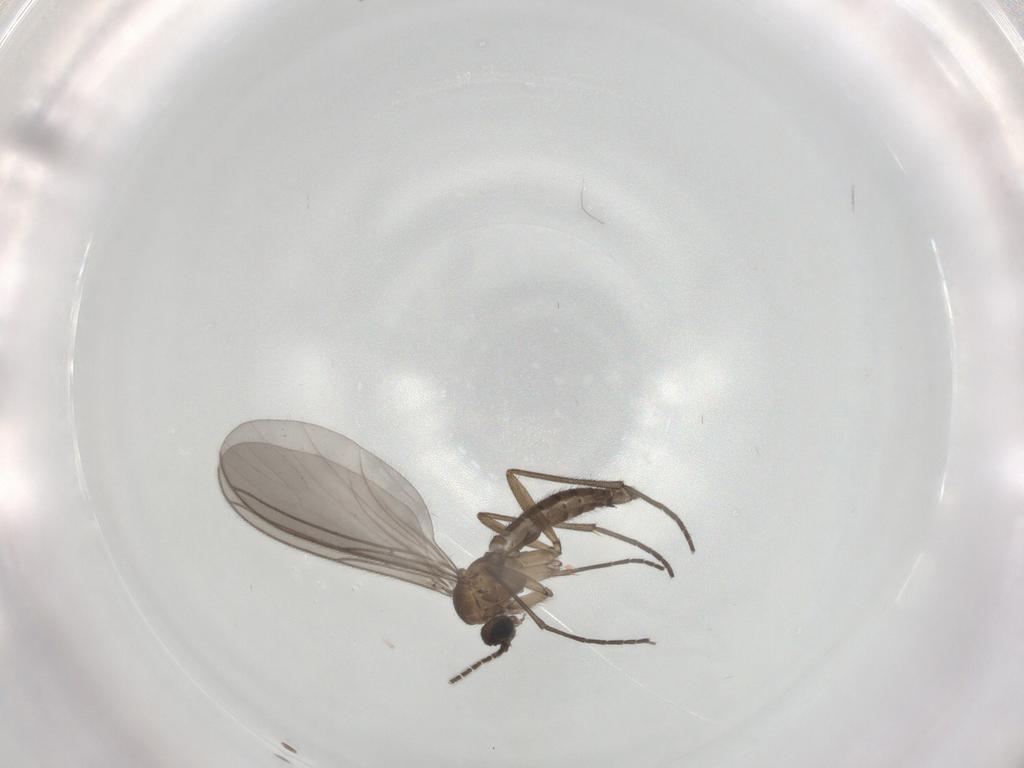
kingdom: Animalia
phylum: Arthropoda
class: Insecta
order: Diptera
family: Sciaridae
